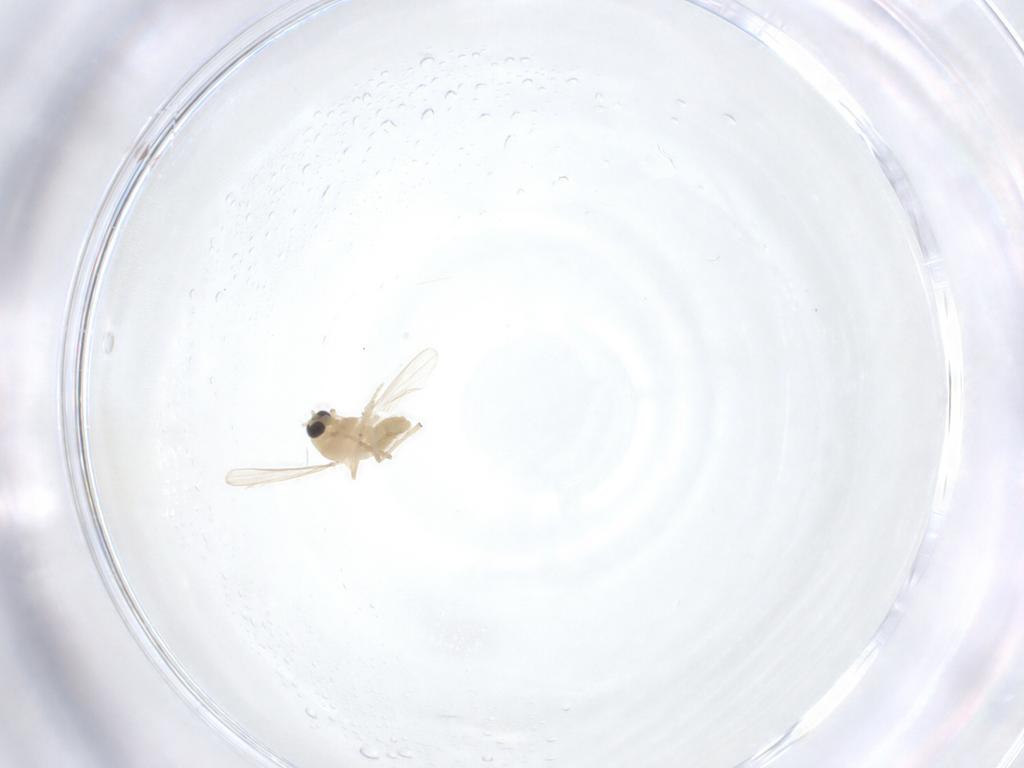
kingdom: Animalia
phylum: Arthropoda
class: Insecta
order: Diptera
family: Chironomidae
